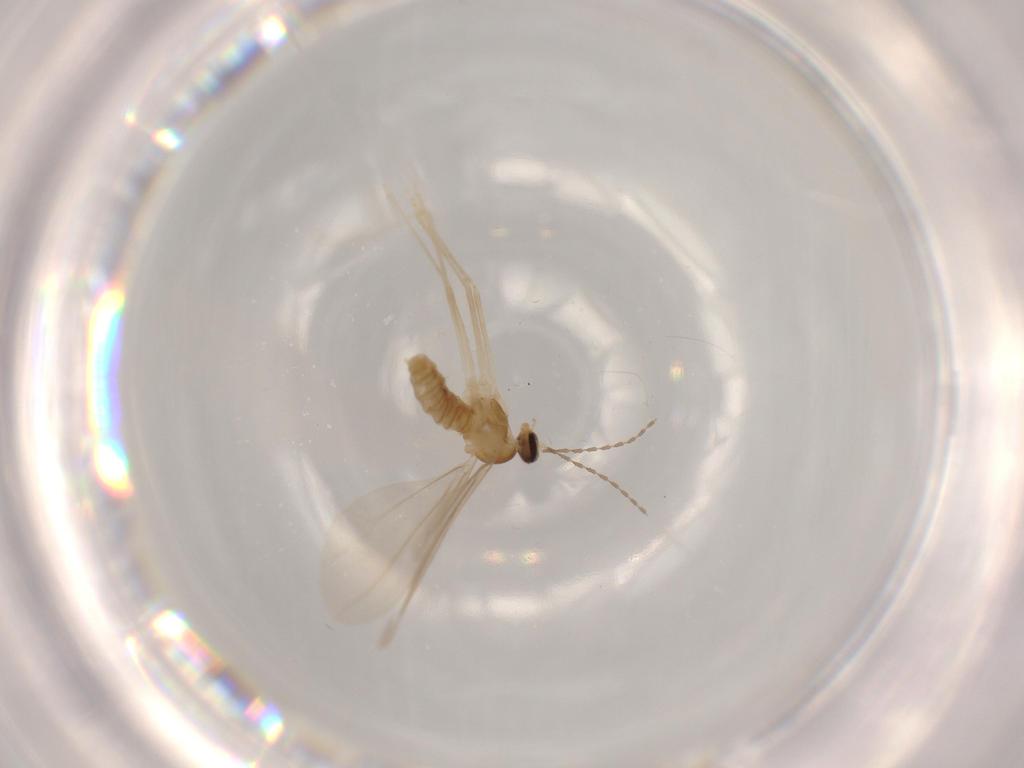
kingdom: Animalia
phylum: Arthropoda
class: Insecta
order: Diptera
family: Cecidomyiidae
